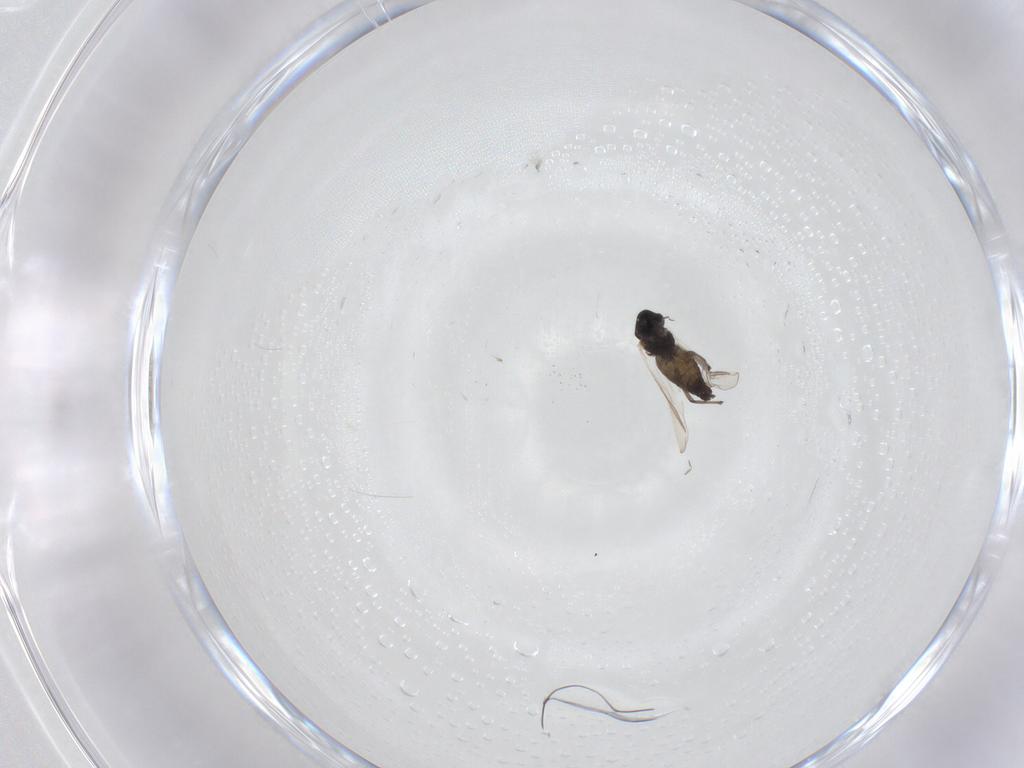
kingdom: Animalia
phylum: Arthropoda
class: Insecta
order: Diptera
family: Chironomidae
